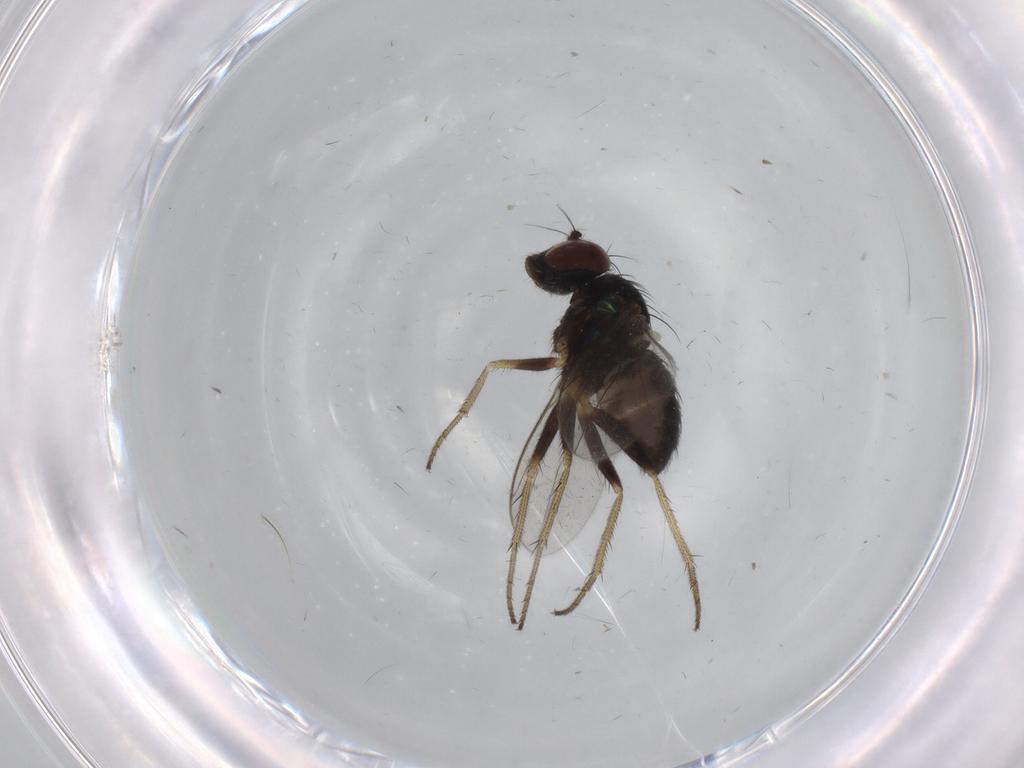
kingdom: Animalia
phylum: Arthropoda
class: Insecta
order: Diptera
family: Dolichopodidae
